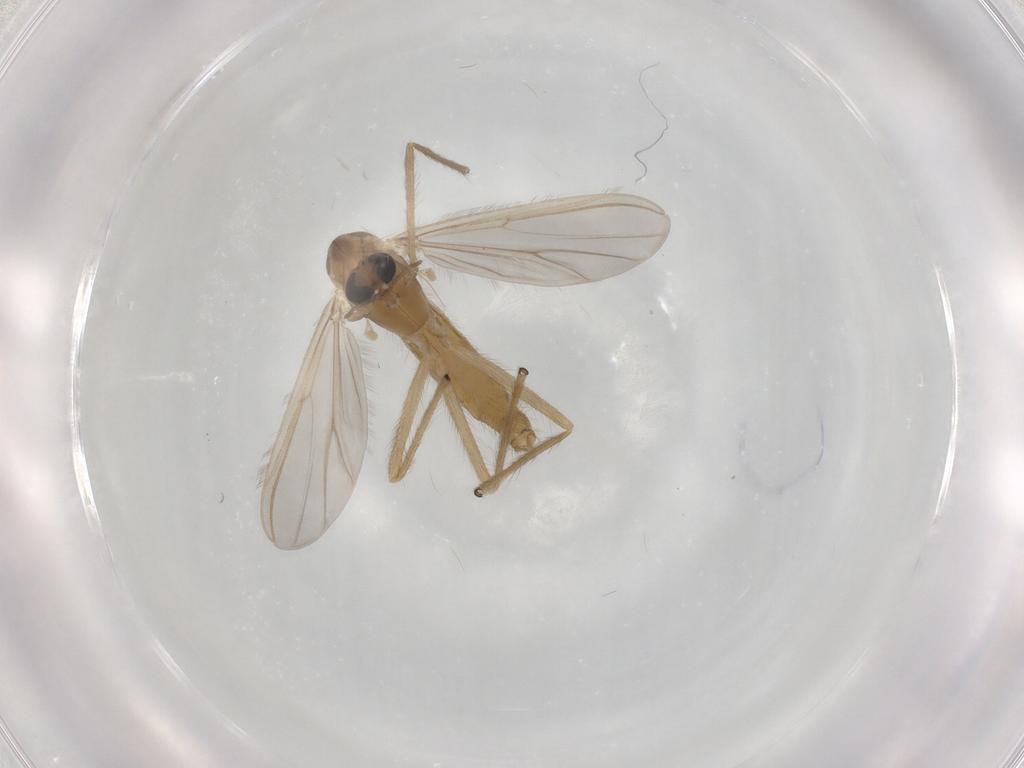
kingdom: Animalia
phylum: Arthropoda
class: Insecta
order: Diptera
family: Chironomidae
